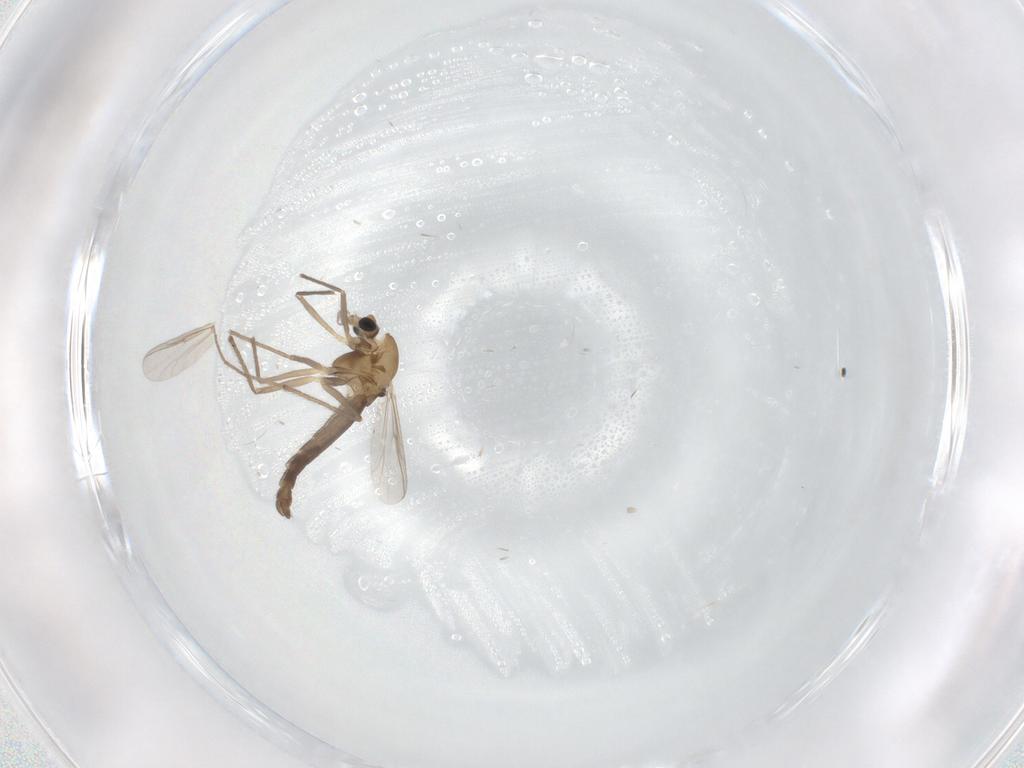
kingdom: Animalia
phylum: Arthropoda
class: Insecta
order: Diptera
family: Chironomidae
